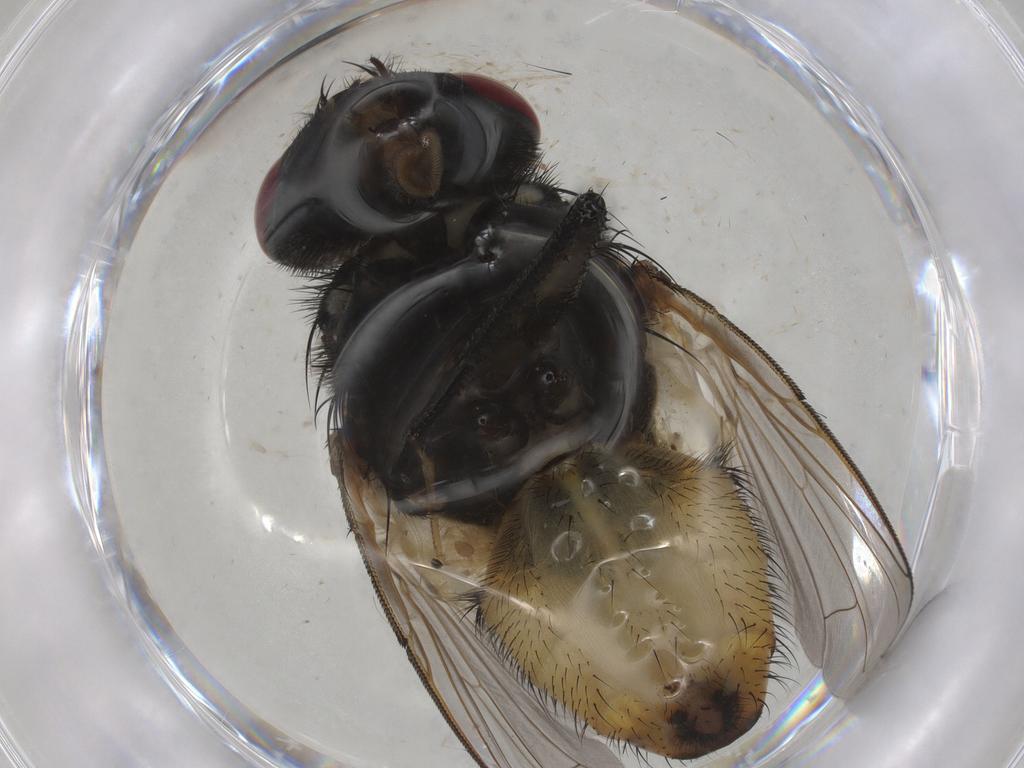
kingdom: Animalia
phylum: Arthropoda
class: Insecta
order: Diptera
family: Muscidae
